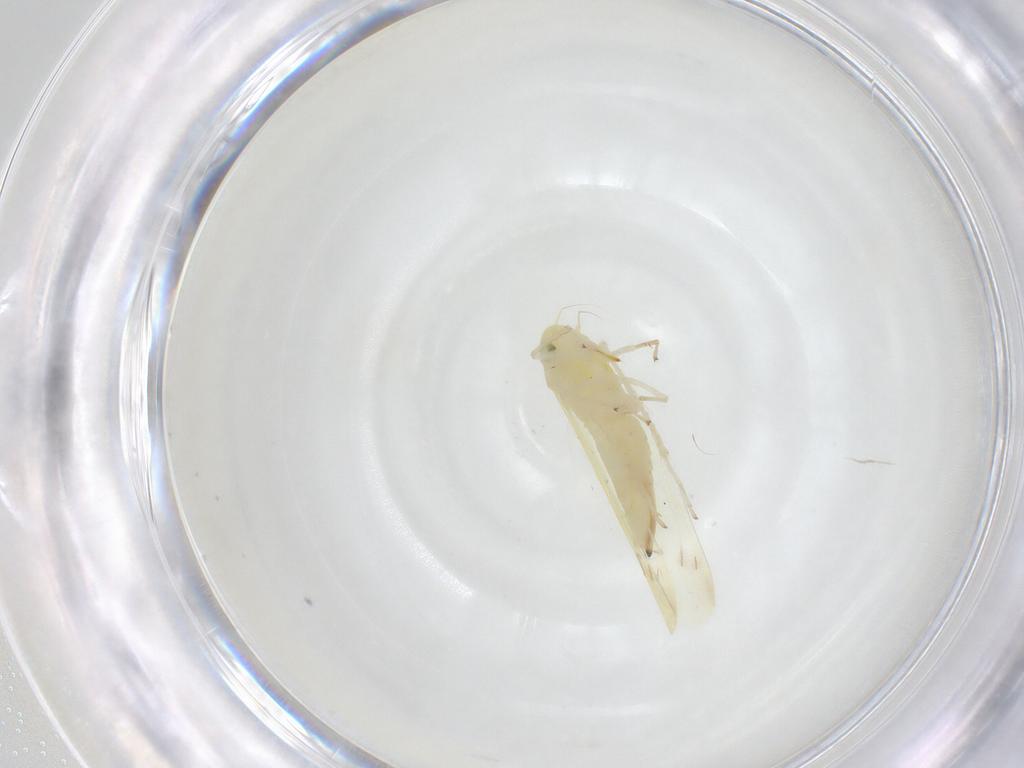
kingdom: Animalia
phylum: Arthropoda
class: Insecta
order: Hemiptera
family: Cicadellidae
